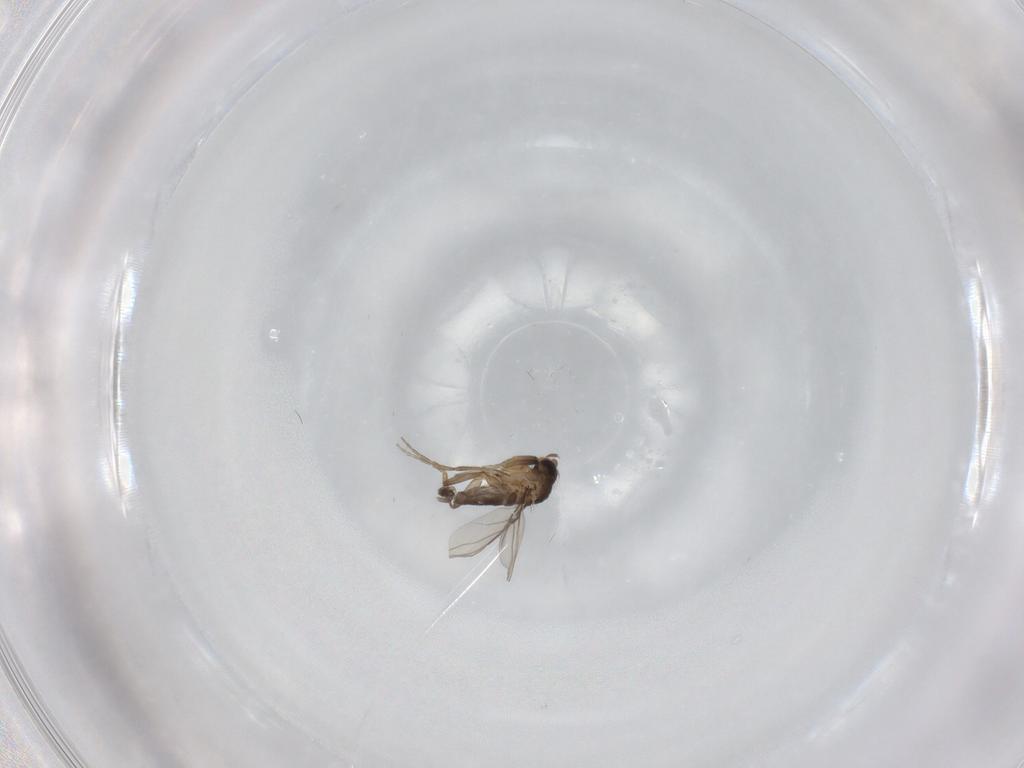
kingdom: Animalia
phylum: Arthropoda
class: Insecta
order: Diptera
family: Phoridae
